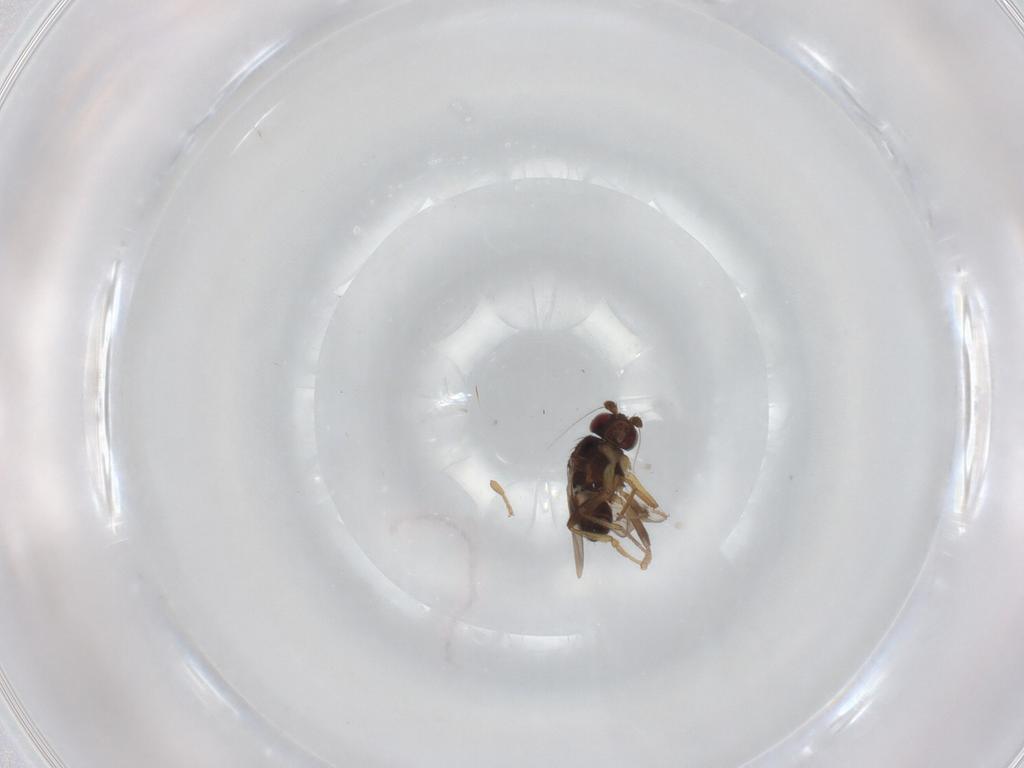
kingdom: Animalia
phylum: Arthropoda
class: Insecta
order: Diptera
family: Sphaeroceridae
